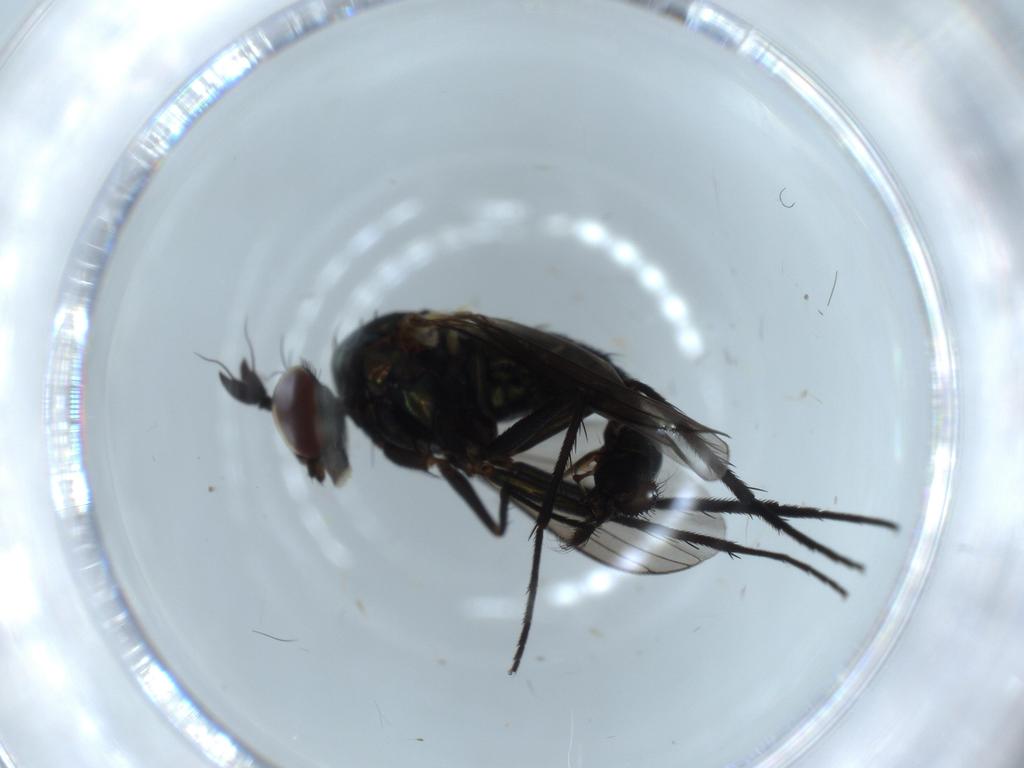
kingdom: Animalia
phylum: Arthropoda
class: Insecta
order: Diptera
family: Dolichopodidae
